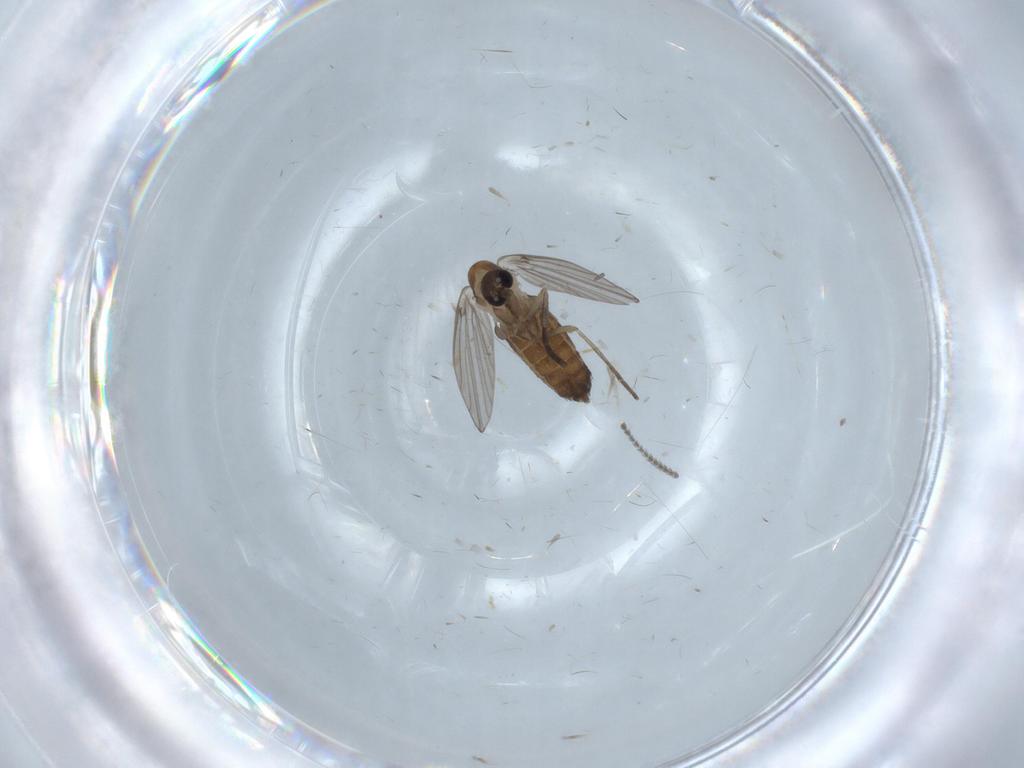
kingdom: Animalia
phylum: Arthropoda
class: Insecta
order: Diptera
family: Psychodidae
